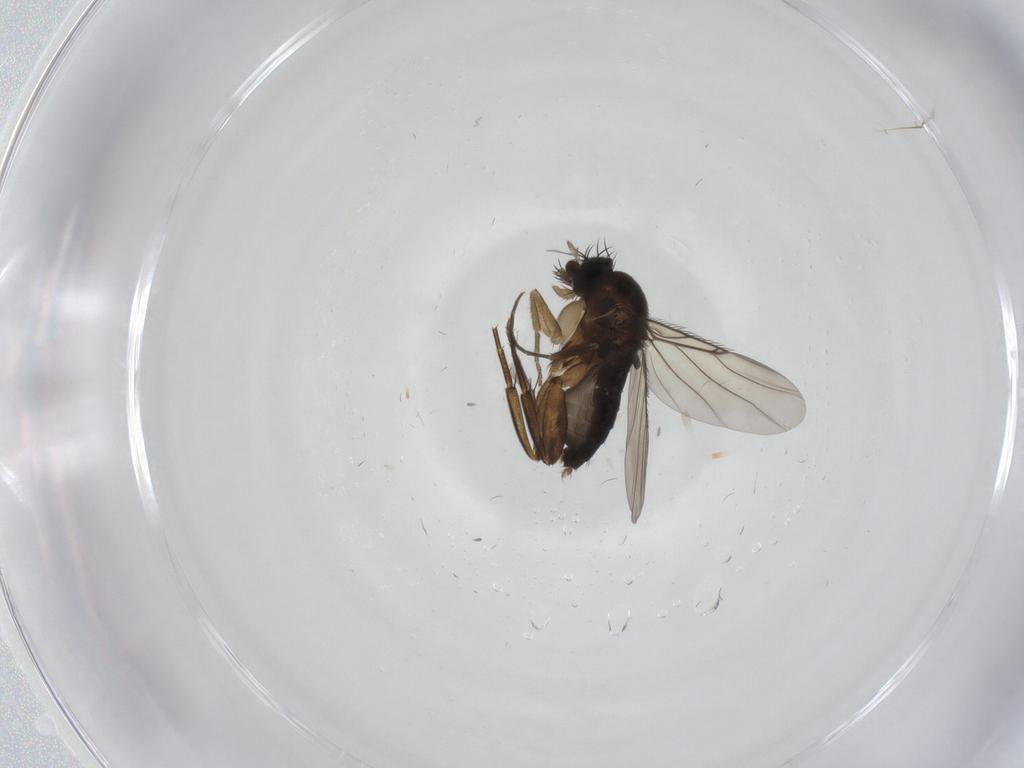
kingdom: Animalia
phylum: Arthropoda
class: Insecta
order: Diptera
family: Phoridae
